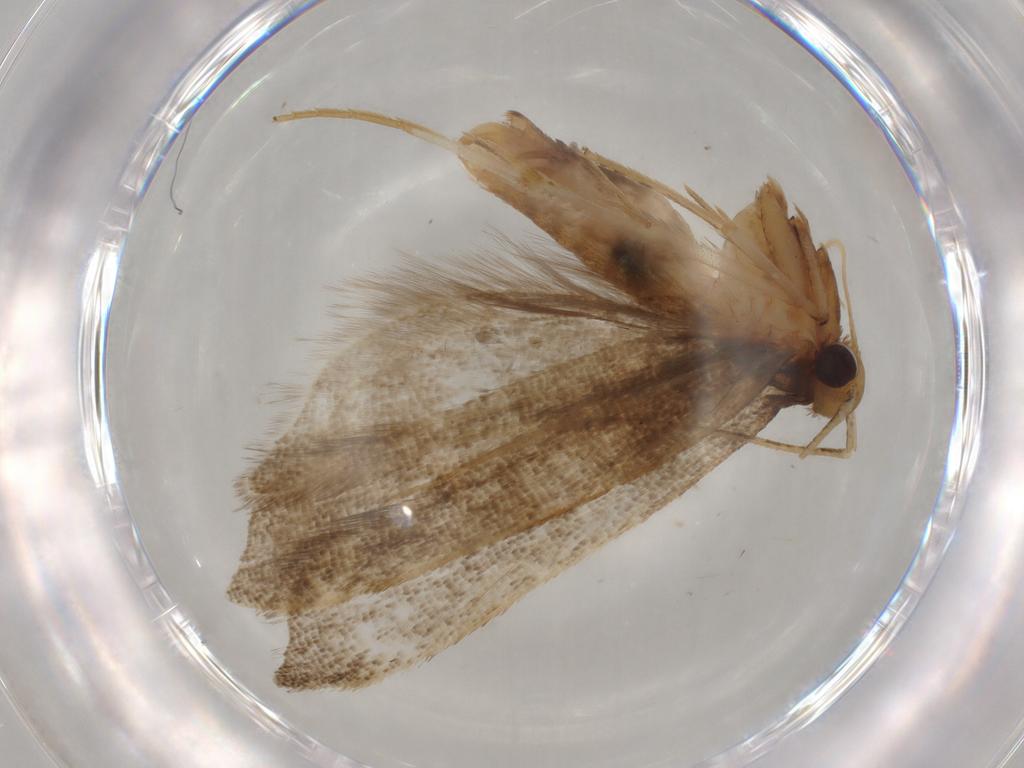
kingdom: Animalia
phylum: Arthropoda
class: Insecta
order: Lepidoptera
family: Lecithoceridae
